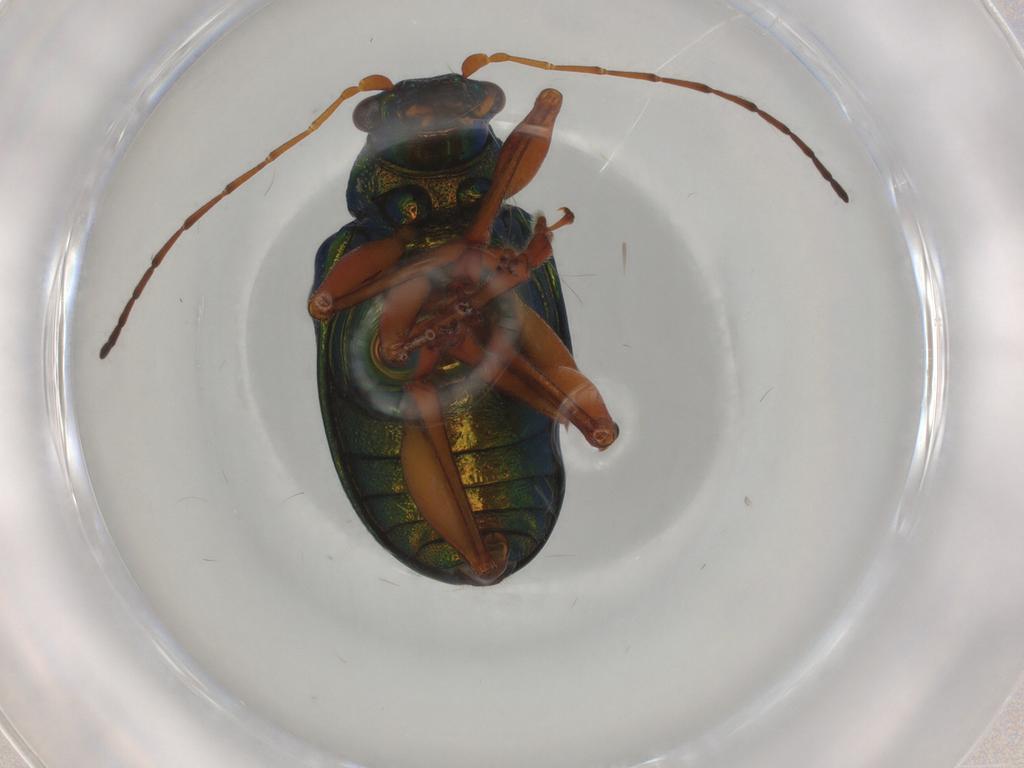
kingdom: Animalia
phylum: Arthropoda
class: Insecta
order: Coleoptera
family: Chrysomelidae
